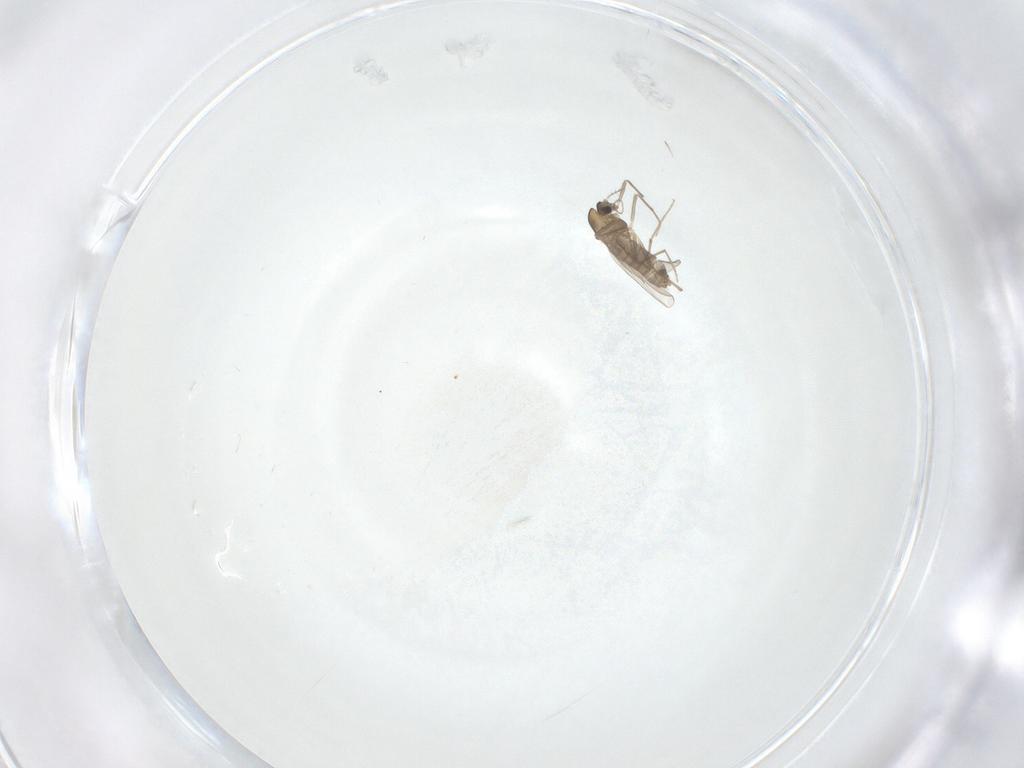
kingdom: Animalia
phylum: Arthropoda
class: Insecta
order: Diptera
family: Chironomidae
